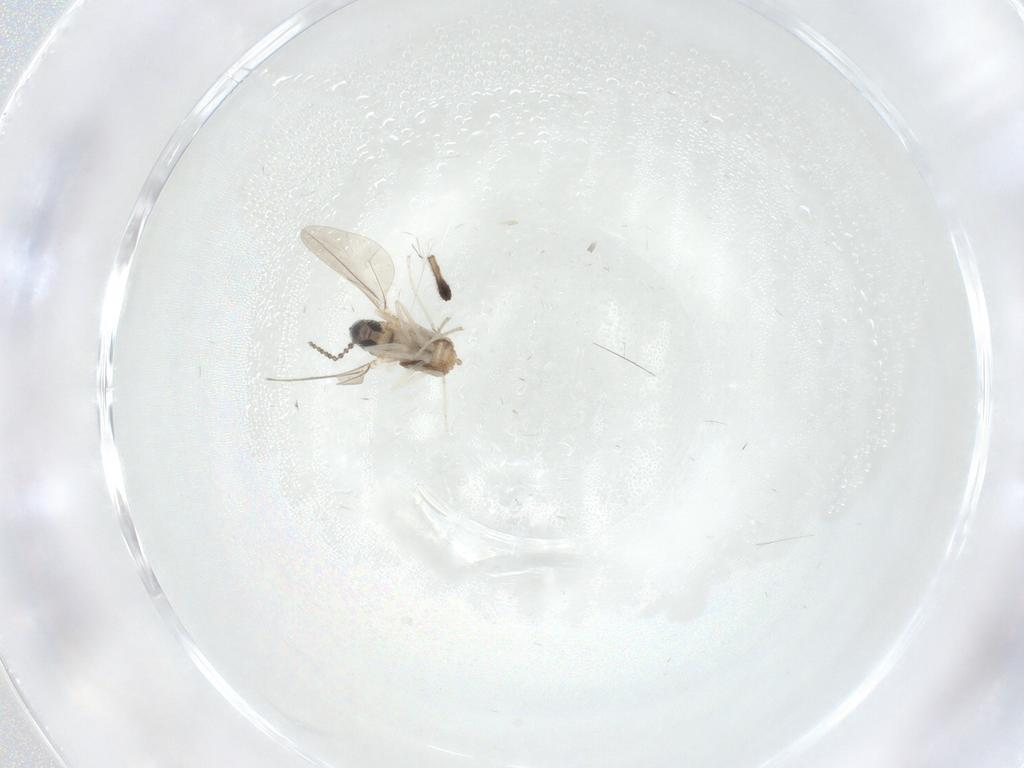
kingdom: Animalia
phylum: Arthropoda
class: Insecta
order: Diptera
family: Cecidomyiidae
